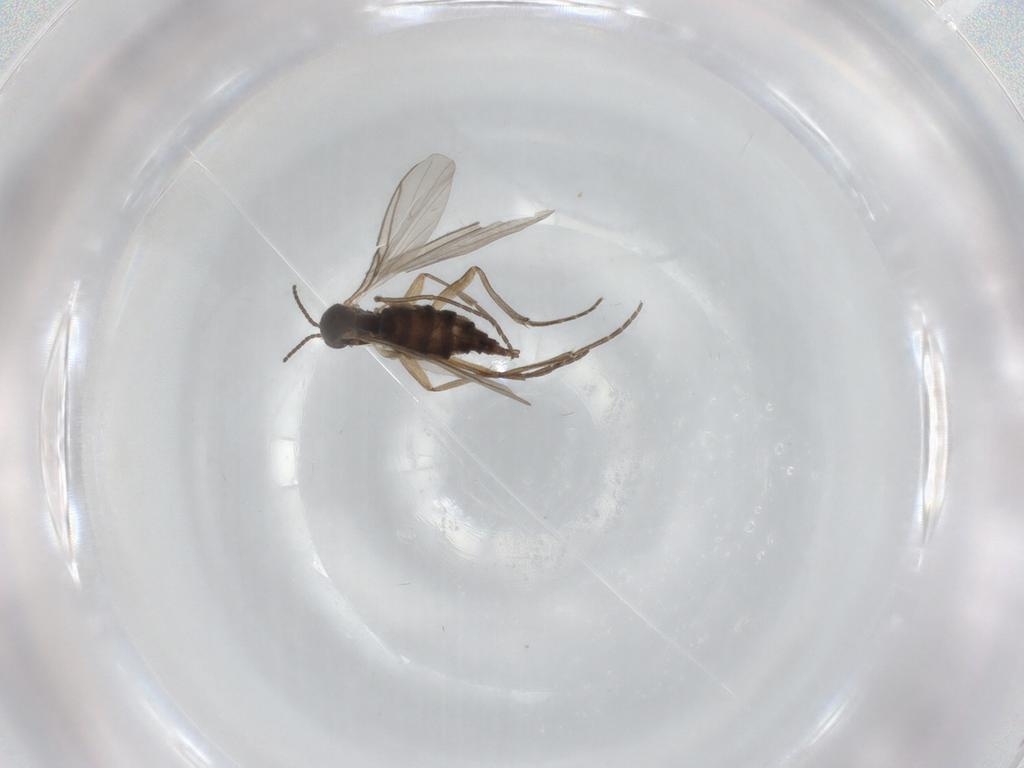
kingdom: Animalia
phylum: Arthropoda
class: Insecta
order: Diptera
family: Sciaridae
